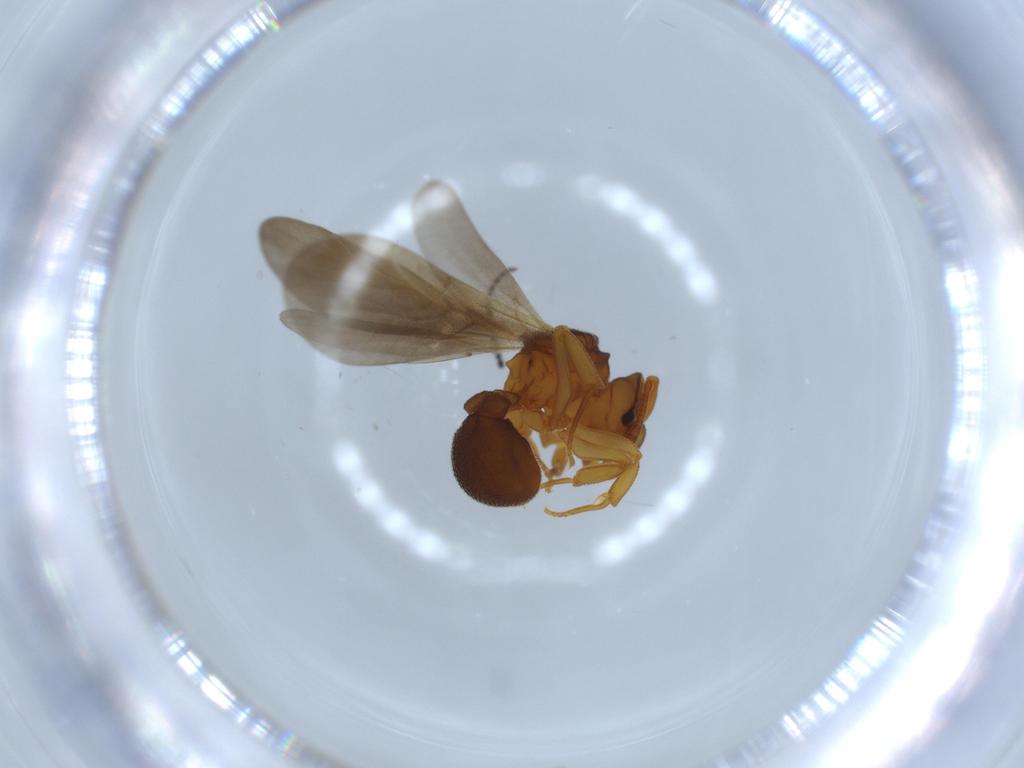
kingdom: Animalia
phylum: Arthropoda
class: Insecta
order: Hymenoptera
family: Formicidae
